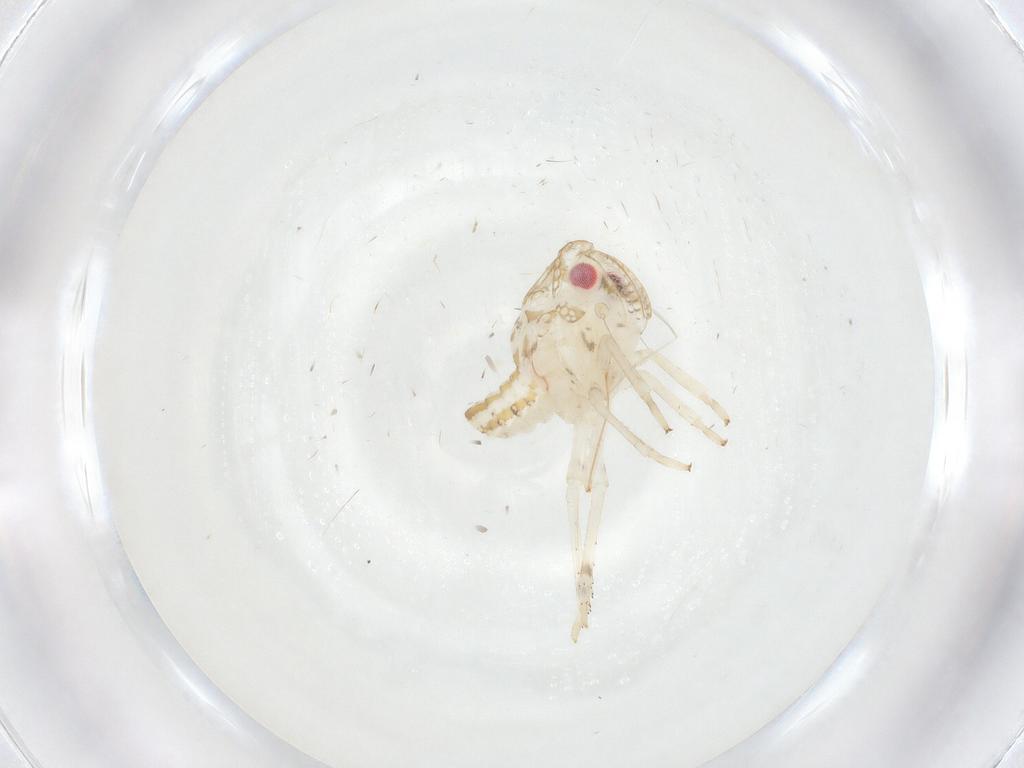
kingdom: Animalia
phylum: Arthropoda
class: Insecta
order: Hemiptera
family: Fulgoroidea_incertae_sedis
